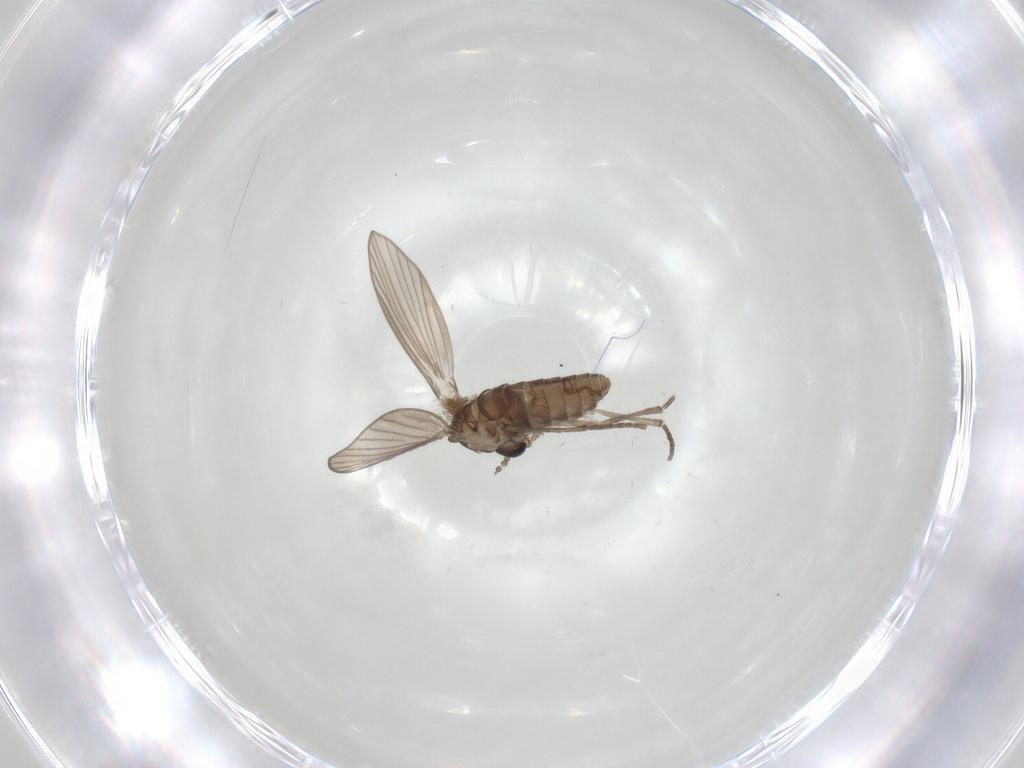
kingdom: Animalia
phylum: Arthropoda
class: Insecta
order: Diptera
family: Psychodidae
